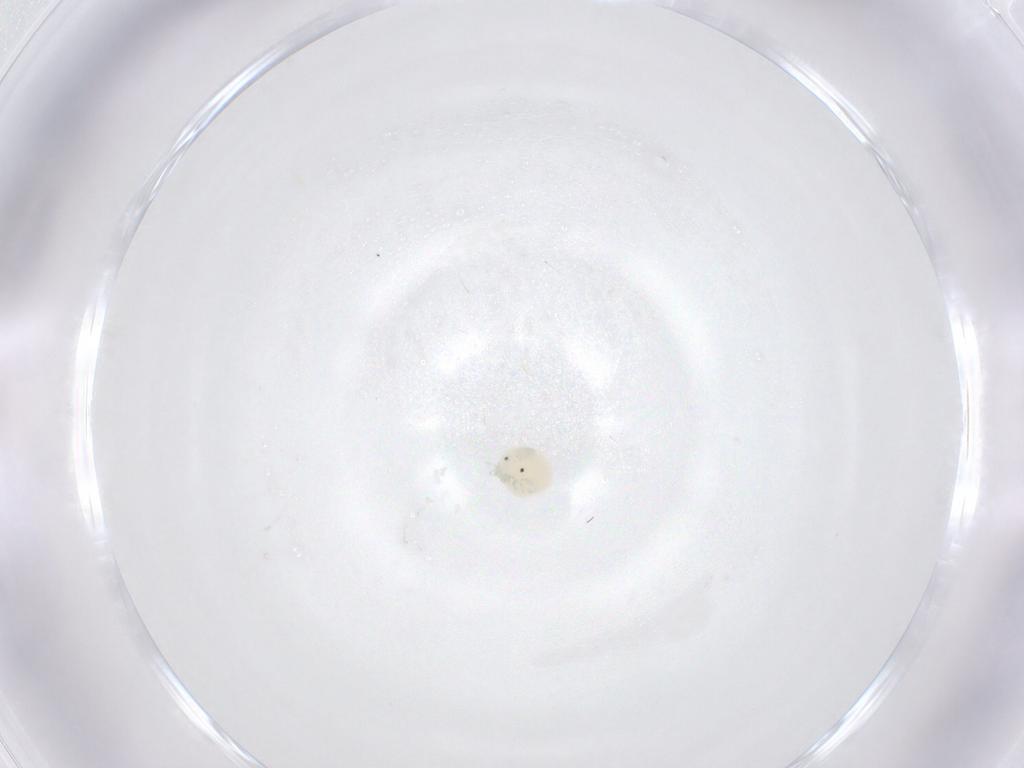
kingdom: Animalia
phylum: Arthropoda
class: Arachnida
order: Trombidiformes
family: Arrenuridae
